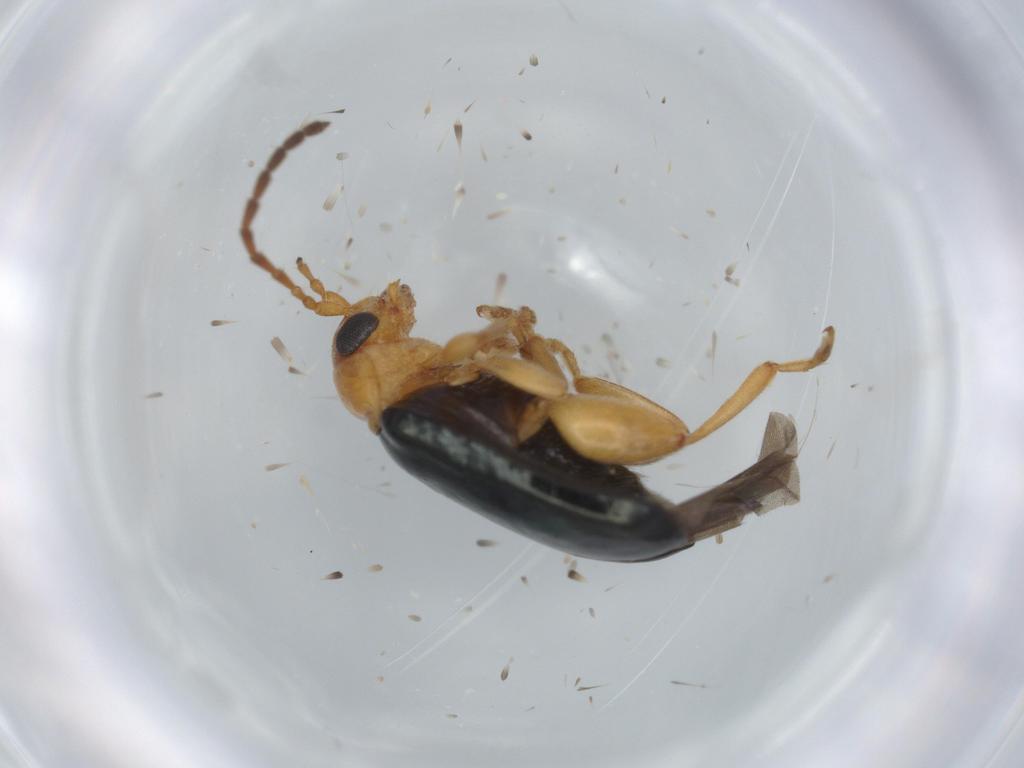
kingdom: Animalia
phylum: Arthropoda
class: Insecta
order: Coleoptera
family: Chrysomelidae
